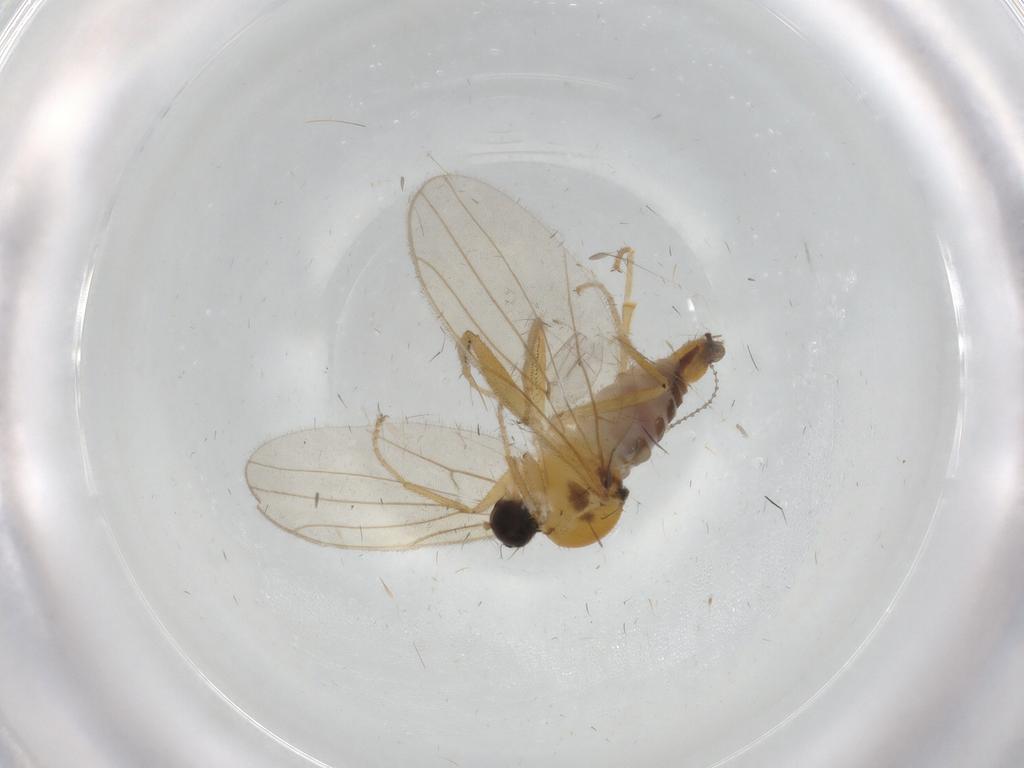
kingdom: Animalia
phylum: Arthropoda
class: Insecta
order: Diptera
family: Hybotidae
